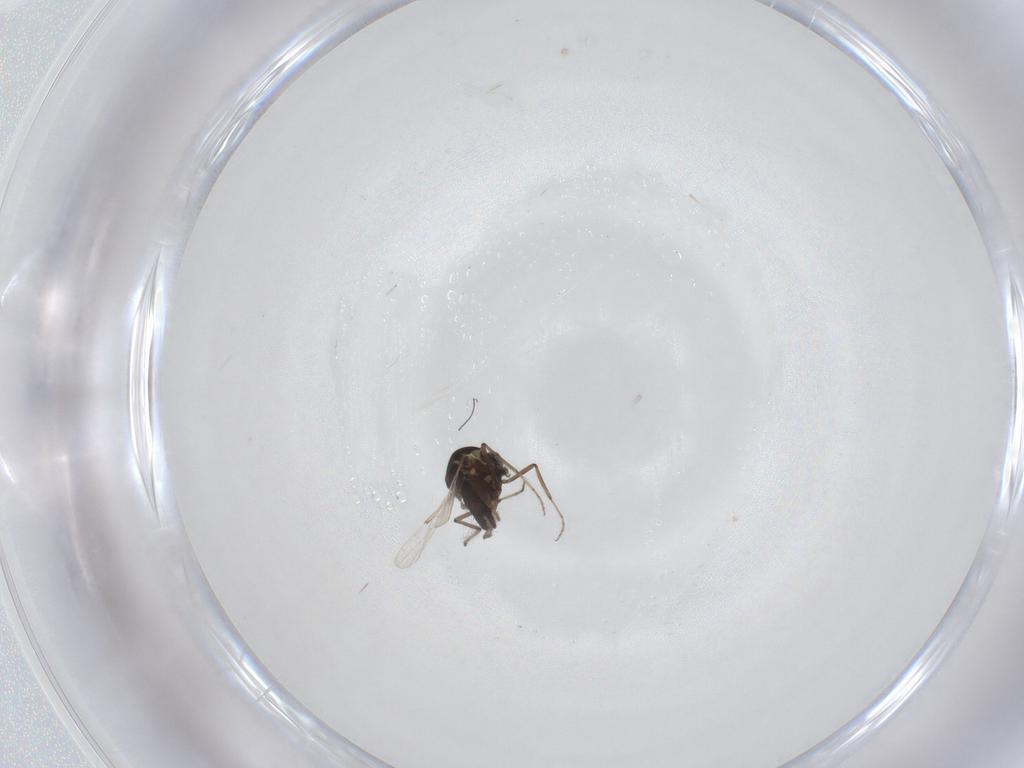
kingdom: Animalia
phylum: Arthropoda
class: Insecta
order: Diptera
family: Ceratopogonidae
